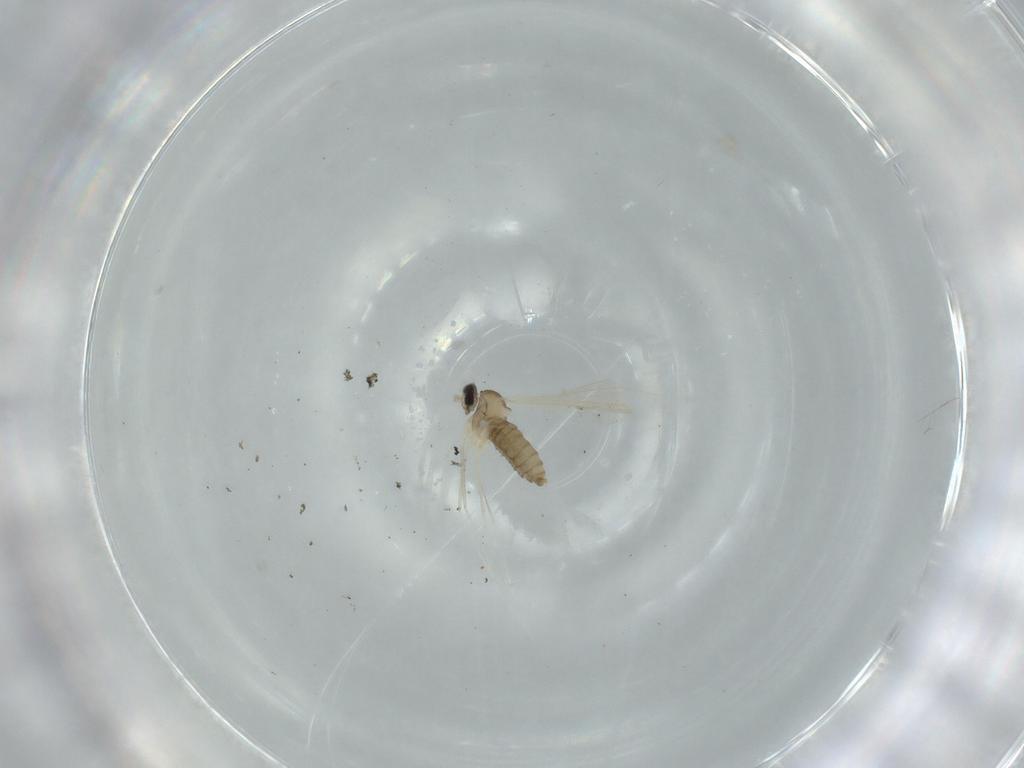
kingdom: Animalia
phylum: Arthropoda
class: Insecta
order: Diptera
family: Cecidomyiidae
